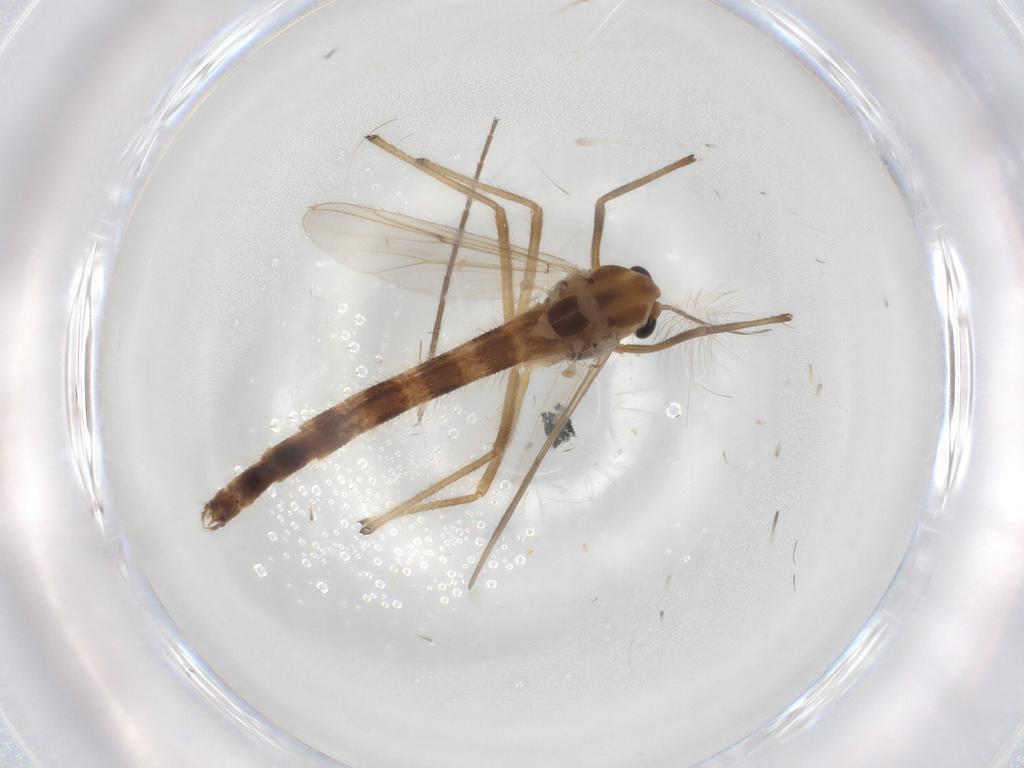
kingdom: Animalia
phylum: Arthropoda
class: Insecta
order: Diptera
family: Chironomidae
